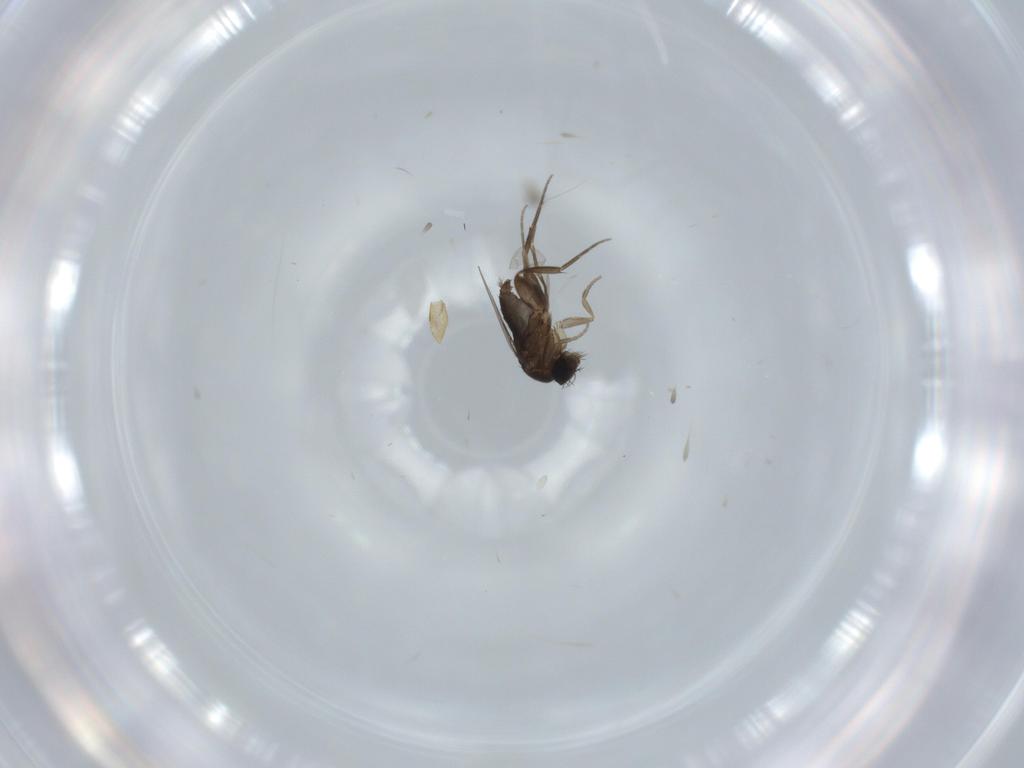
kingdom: Animalia
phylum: Arthropoda
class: Insecta
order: Diptera
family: Phoridae
